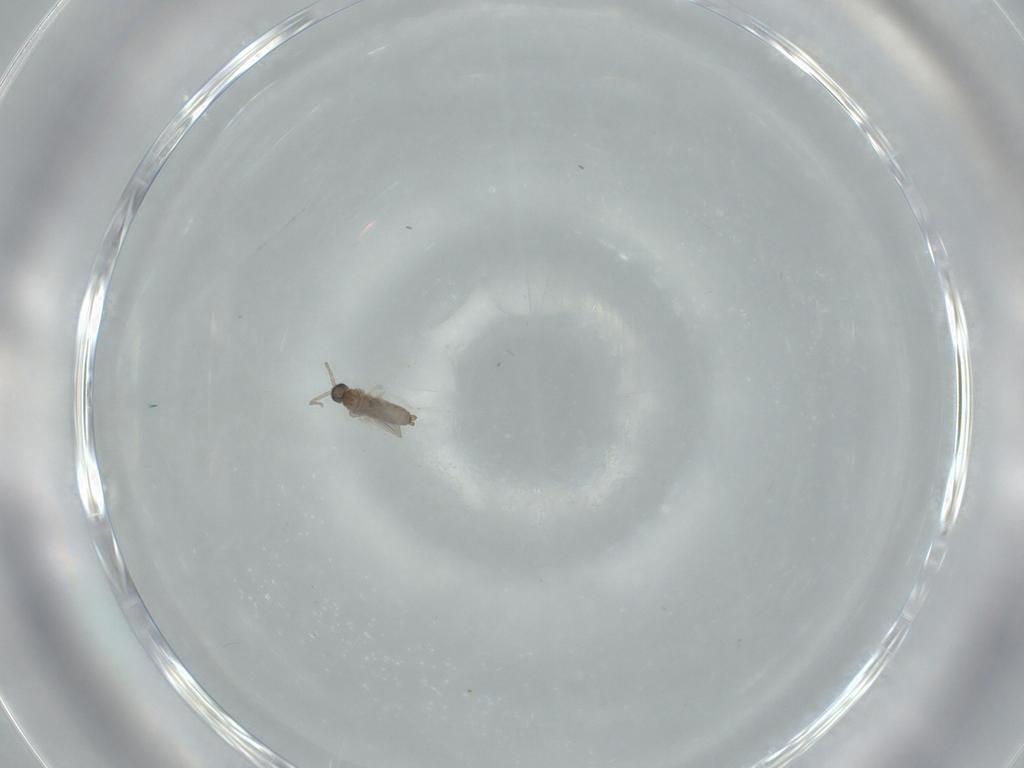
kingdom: Animalia
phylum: Arthropoda
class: Insecta
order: Diptera
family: Cecidomyiidae
